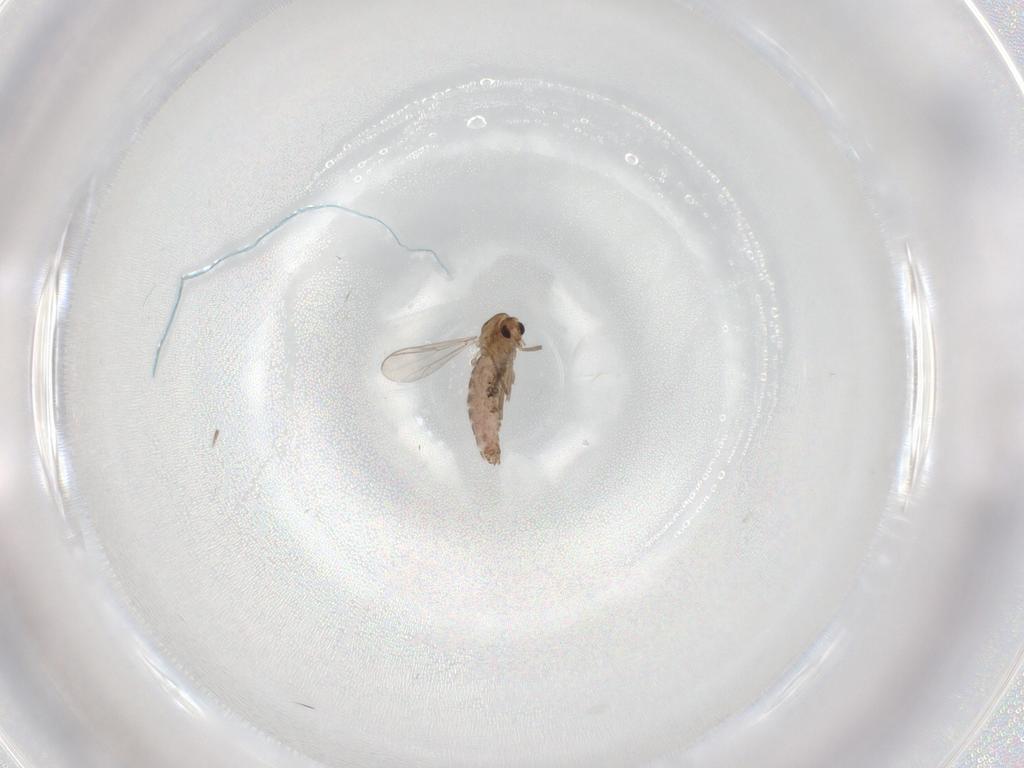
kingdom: Animalia
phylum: Arthropoda
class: Insecta
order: Diptera
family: Chironomidae
